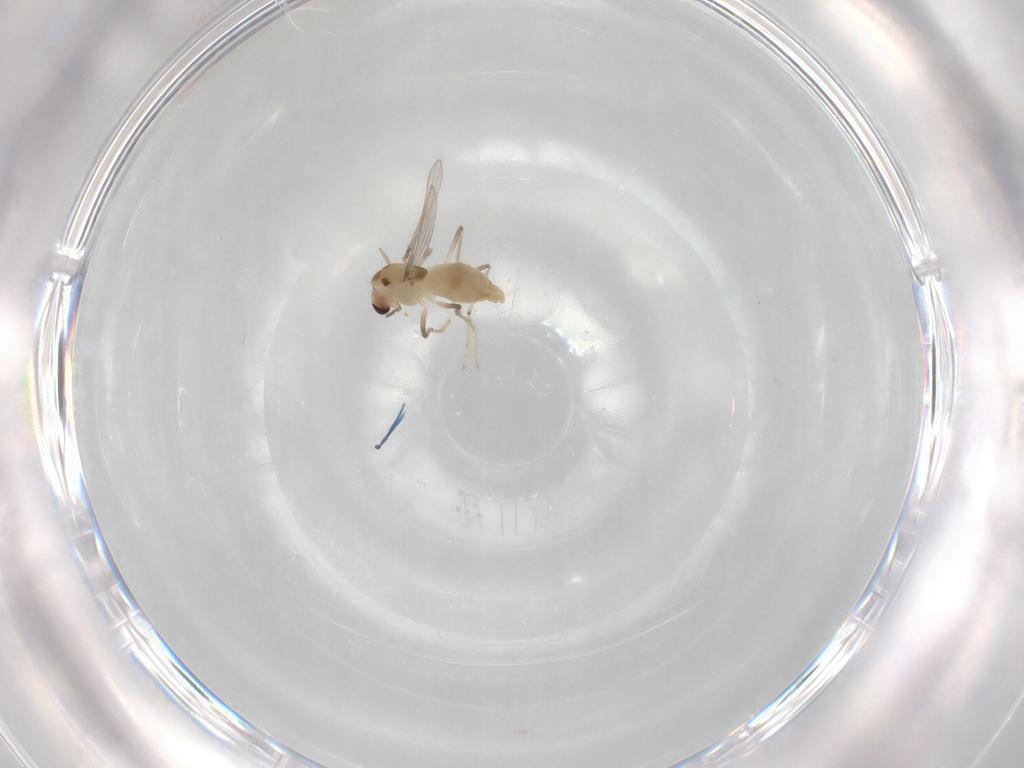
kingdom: Animalia
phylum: Arthropoda
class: Insecta
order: Diptera
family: Chironomidae
